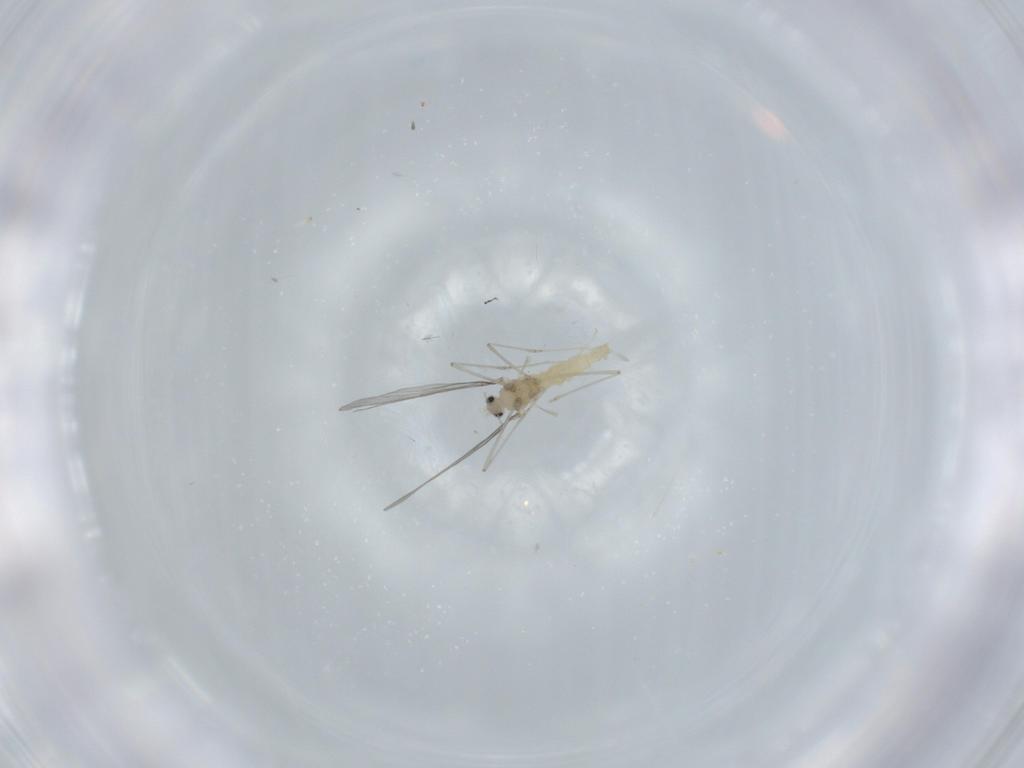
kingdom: Animalia
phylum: Arthropoda
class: Insecta
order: Diptera
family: Cecidomyiidae
